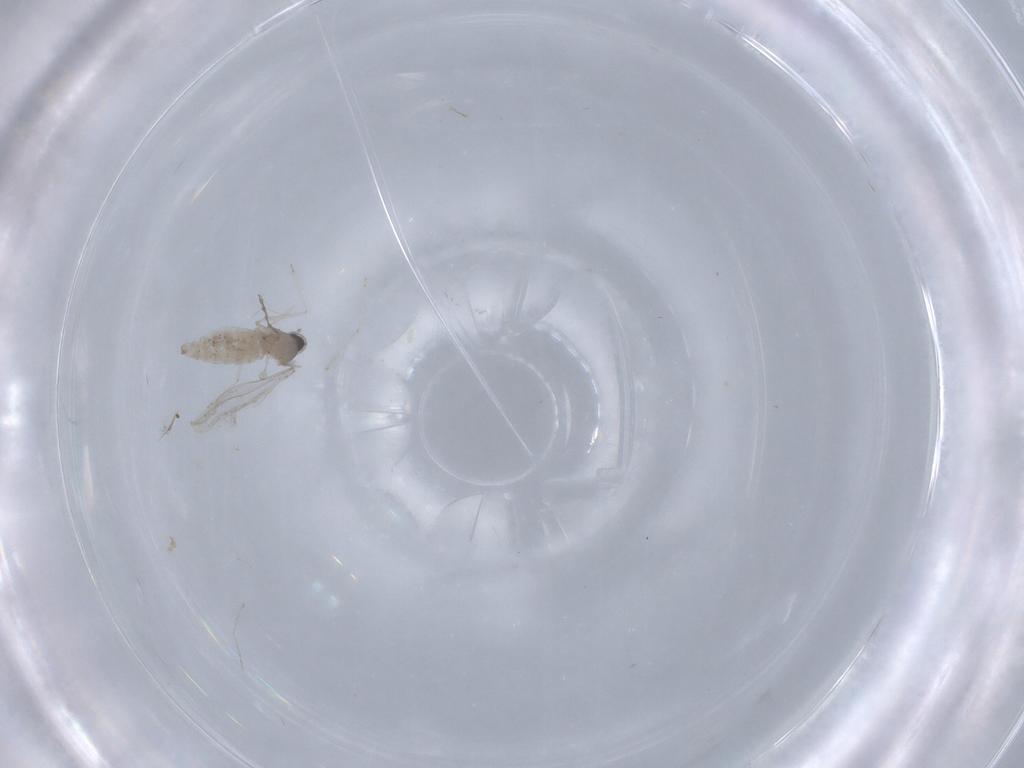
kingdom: Animalia
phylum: Arthropoda
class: Insecta
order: Diptera
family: Cecidomyiidae
